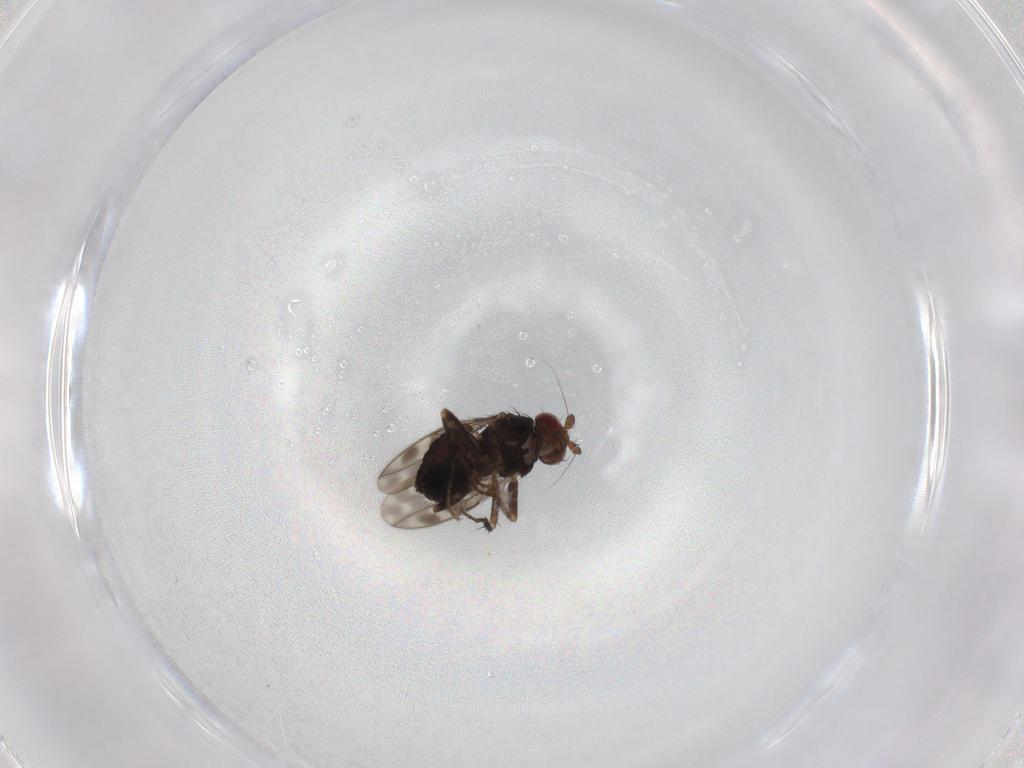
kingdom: Animalia
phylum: Arthropoda
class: Insecta
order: Diptera
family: Sphaeroceridae
